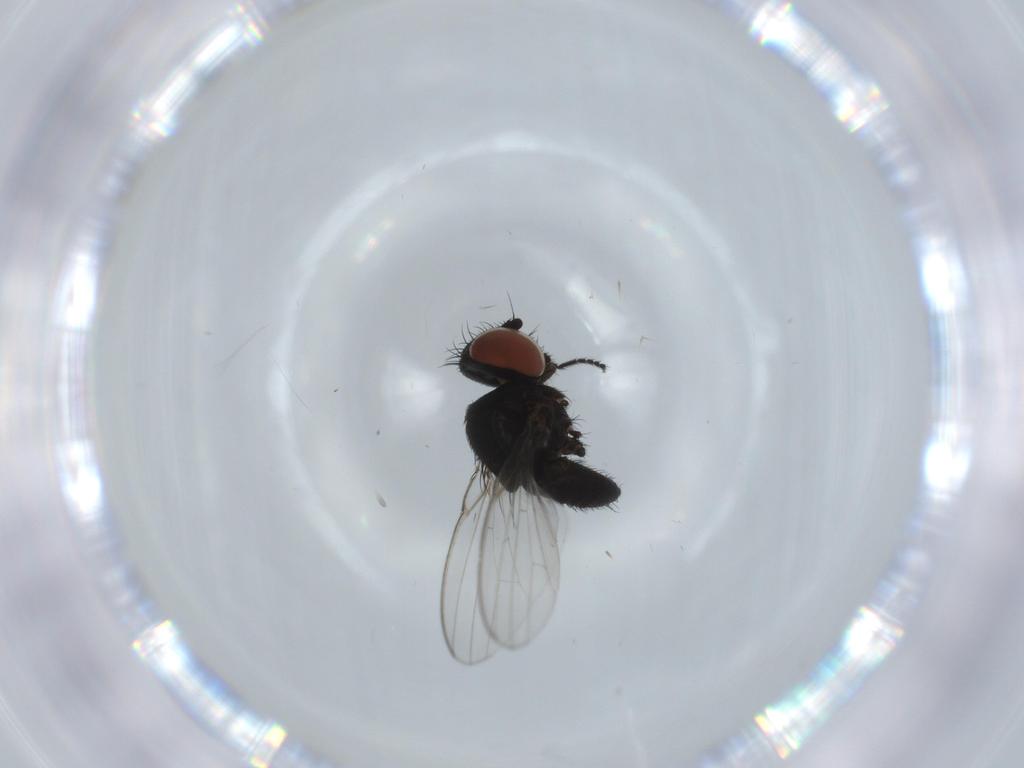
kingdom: Animalia
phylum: Arthropoda
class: Insecta
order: Diptera
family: Milichiidae
